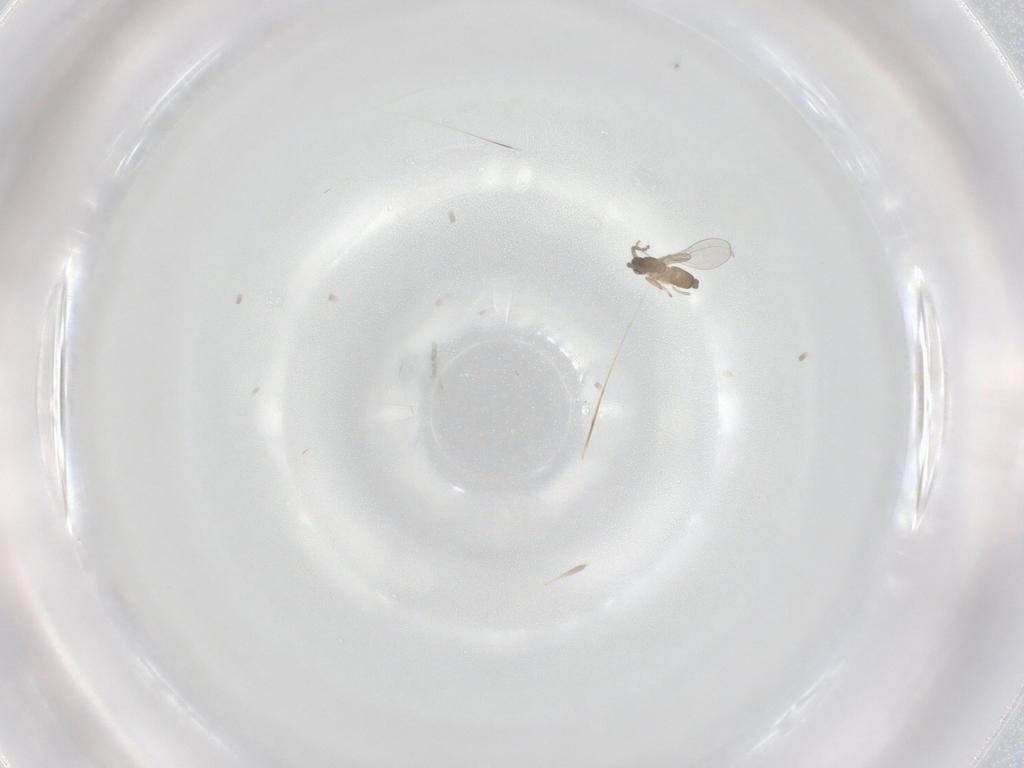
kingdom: Animalia
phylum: Arthropoda
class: Insecta
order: Diptera
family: Cecidomyiidae
